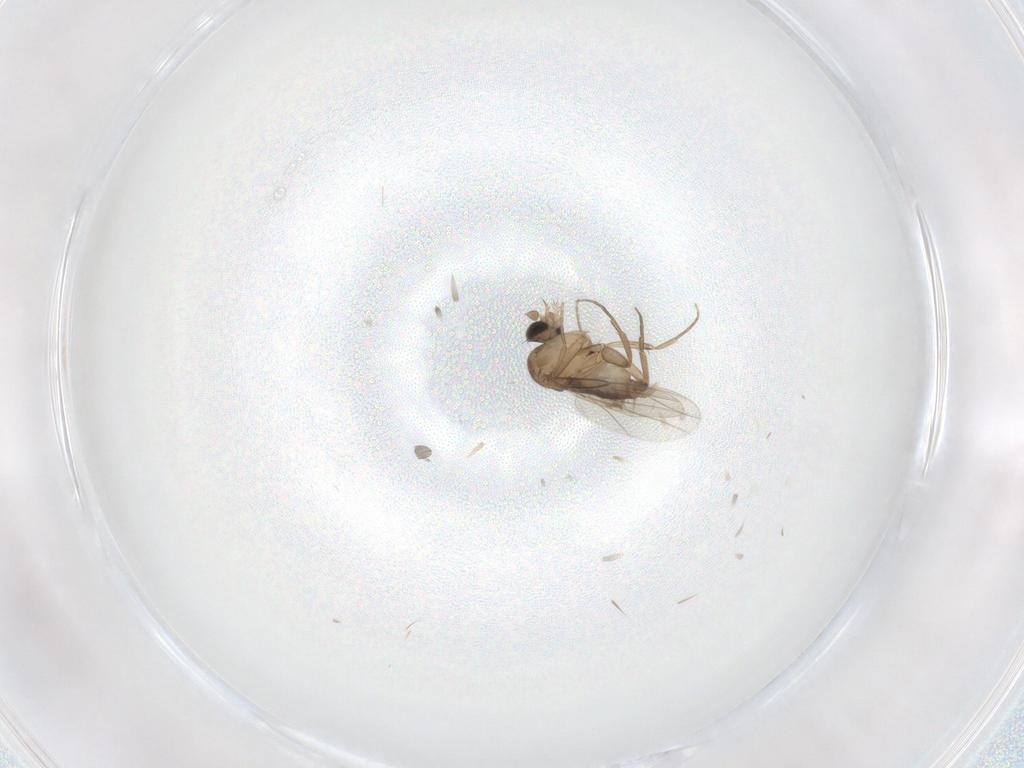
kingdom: Animalia
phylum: Arthropoda
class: Insecta
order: Diptera
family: Phoridae
